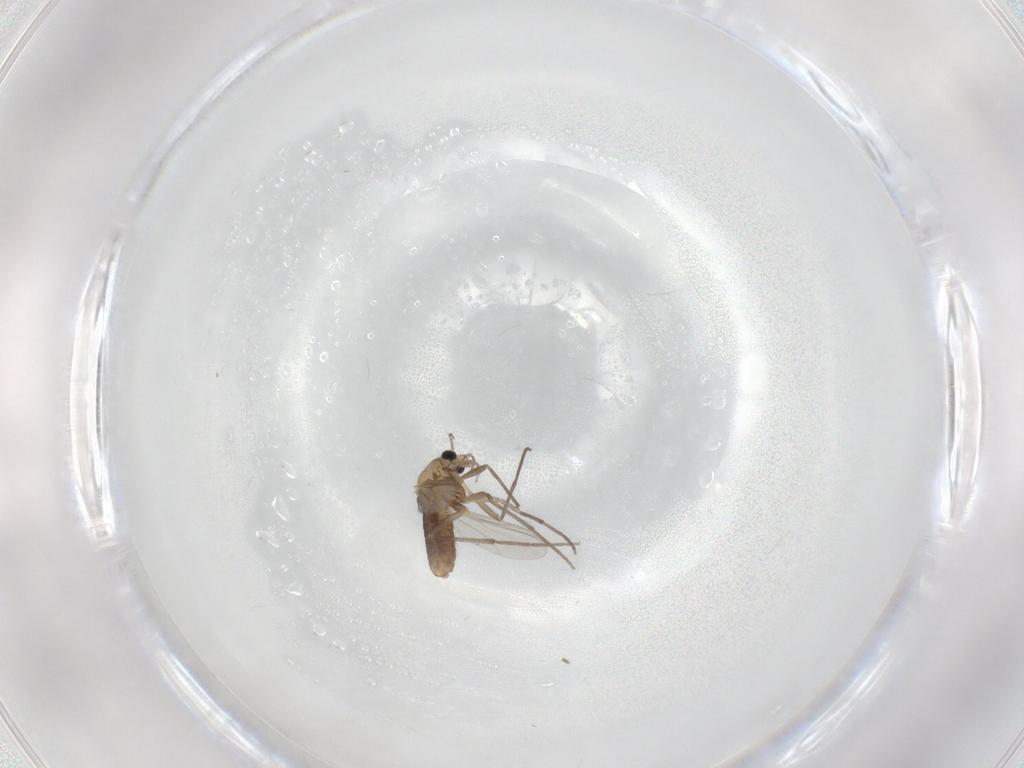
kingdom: Animalia
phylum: Arthropoda
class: Insecta
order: Diptera
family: Chironomidae
